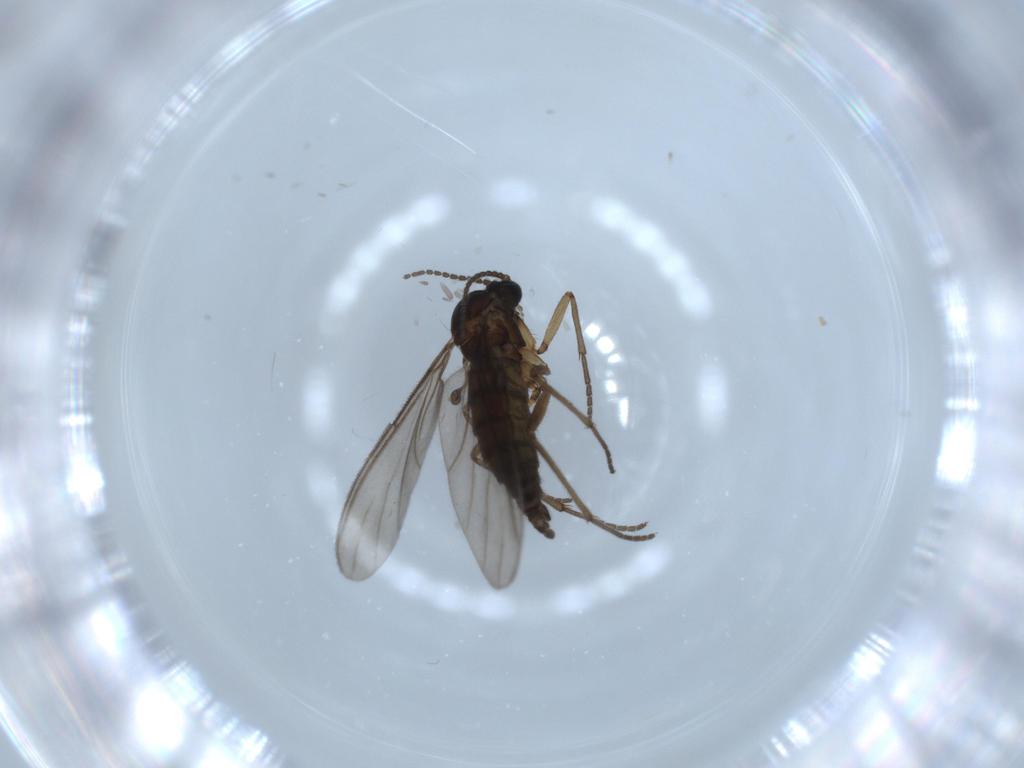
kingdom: Animalia
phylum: Arthropoda
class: Insecta
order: Diptera
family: Sciaridae
